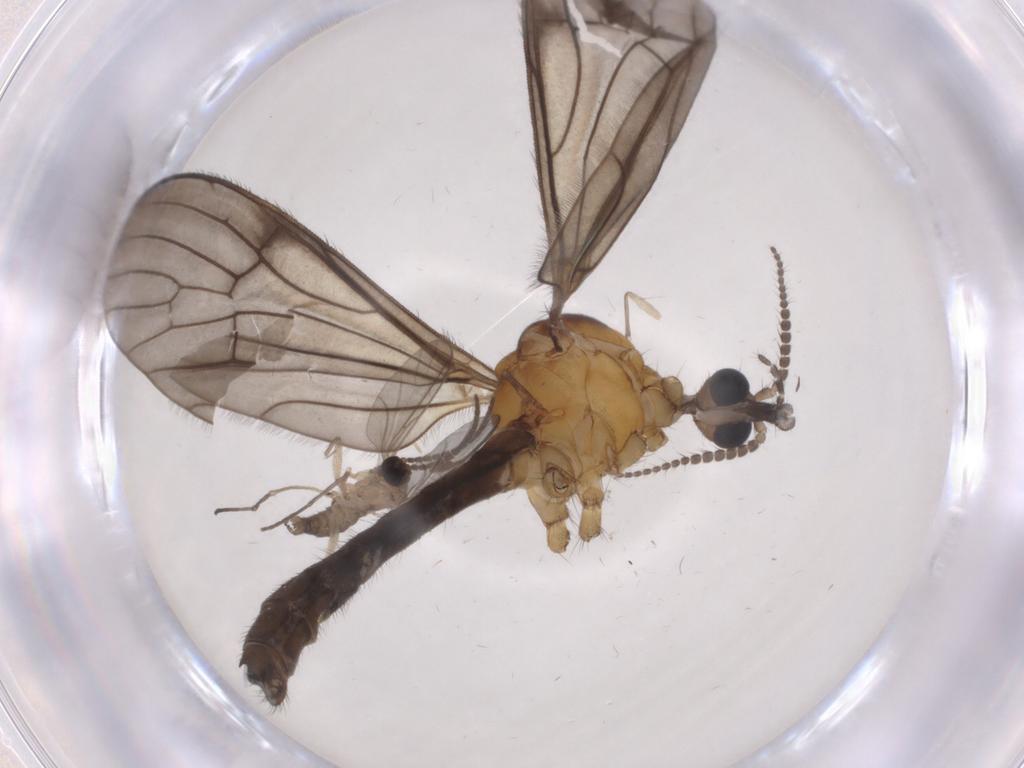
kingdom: Animalia
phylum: Arthropoda
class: Insecta
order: Diptera
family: Limoniidae
